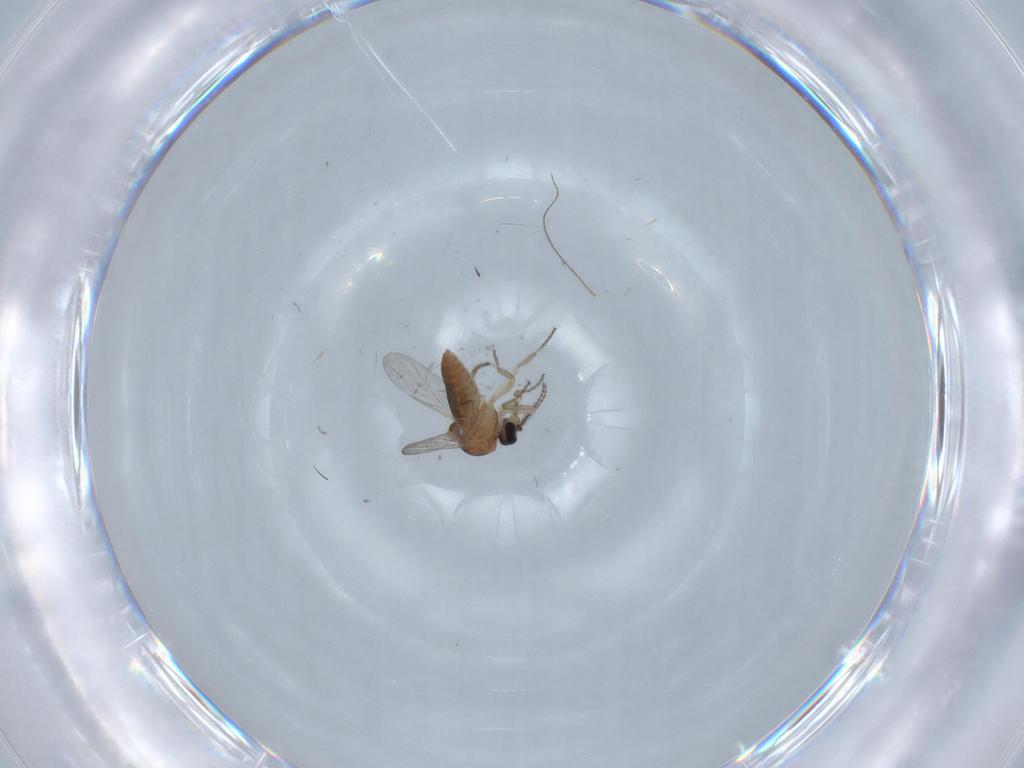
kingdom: Animalia
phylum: Arthropoda
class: Insecta
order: Diptera
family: Ceratopogonidae
